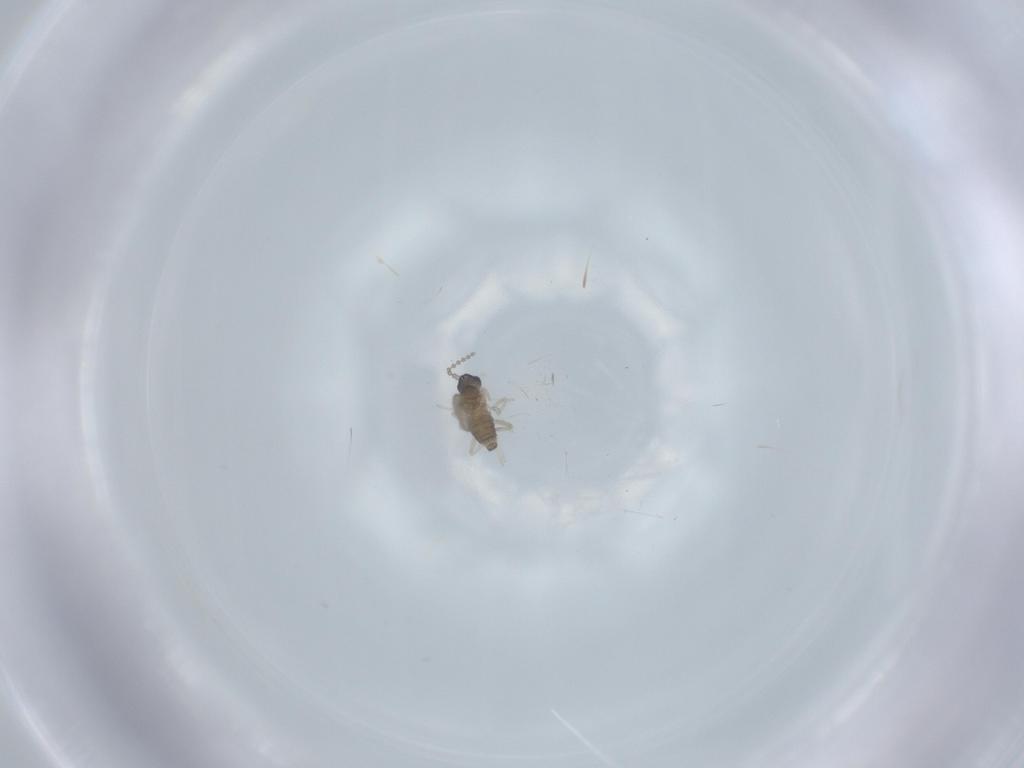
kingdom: Animalia
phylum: Arthropoda
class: Insecta
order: Diptera
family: Cecidomyiidae
